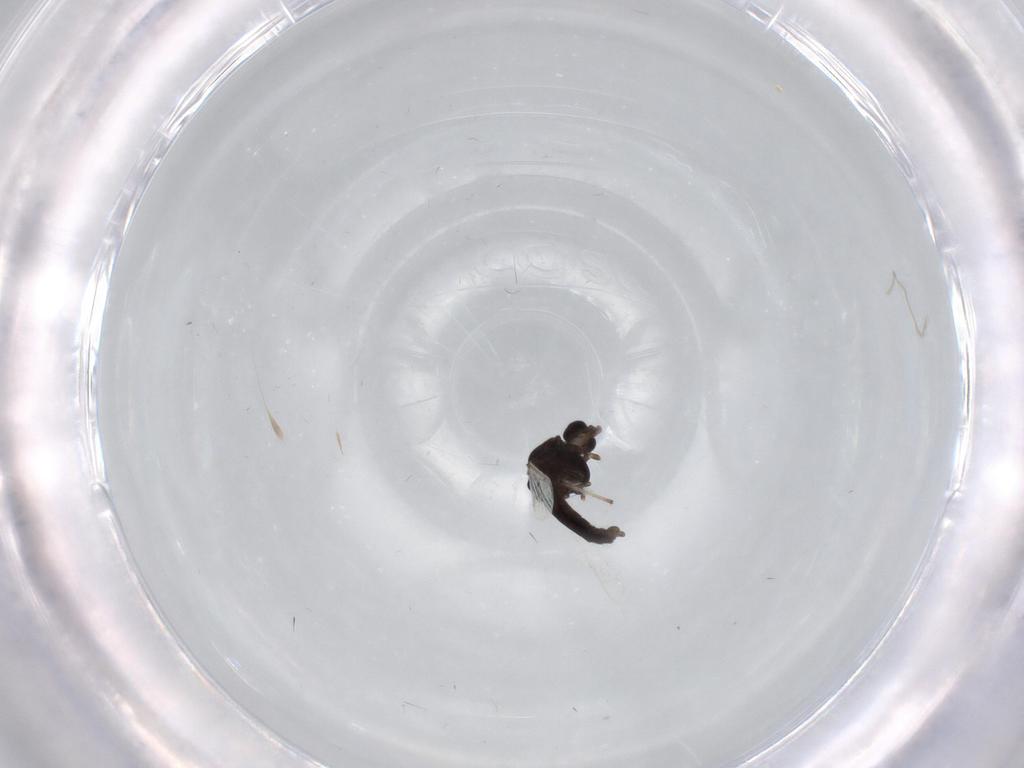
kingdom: Animalia
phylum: Arthropoda
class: Insecta
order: Diptera
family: Chironomidae
